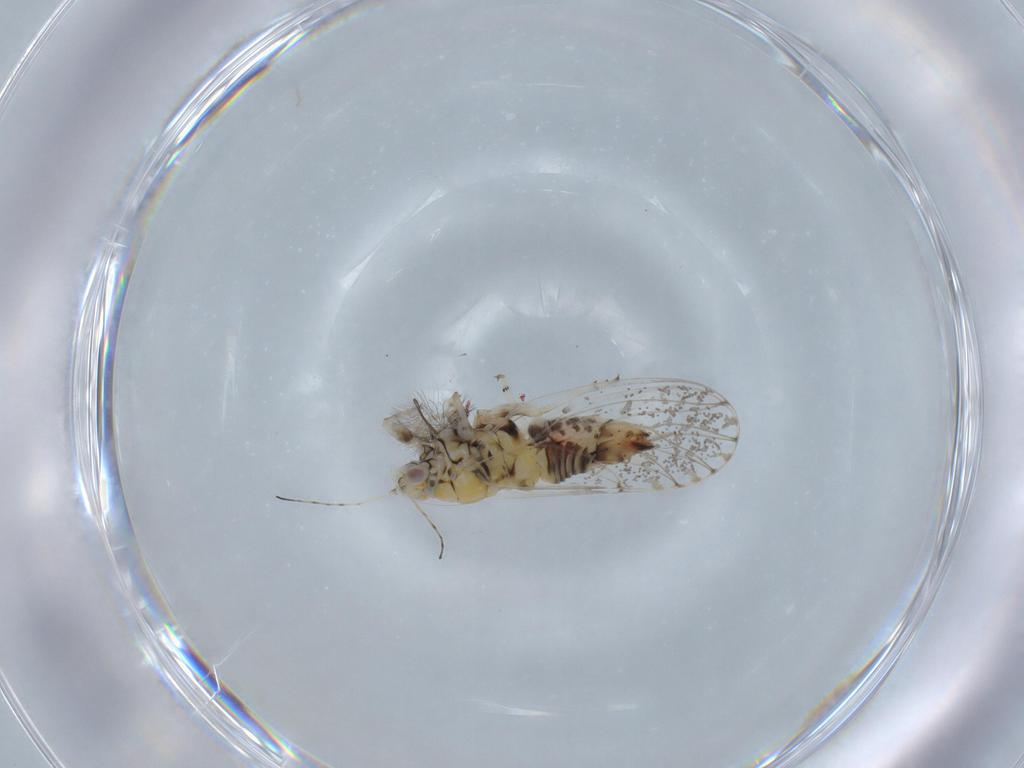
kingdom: Animalia
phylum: Arthropoda
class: Insecta
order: Hemiptera
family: Psyllidae
